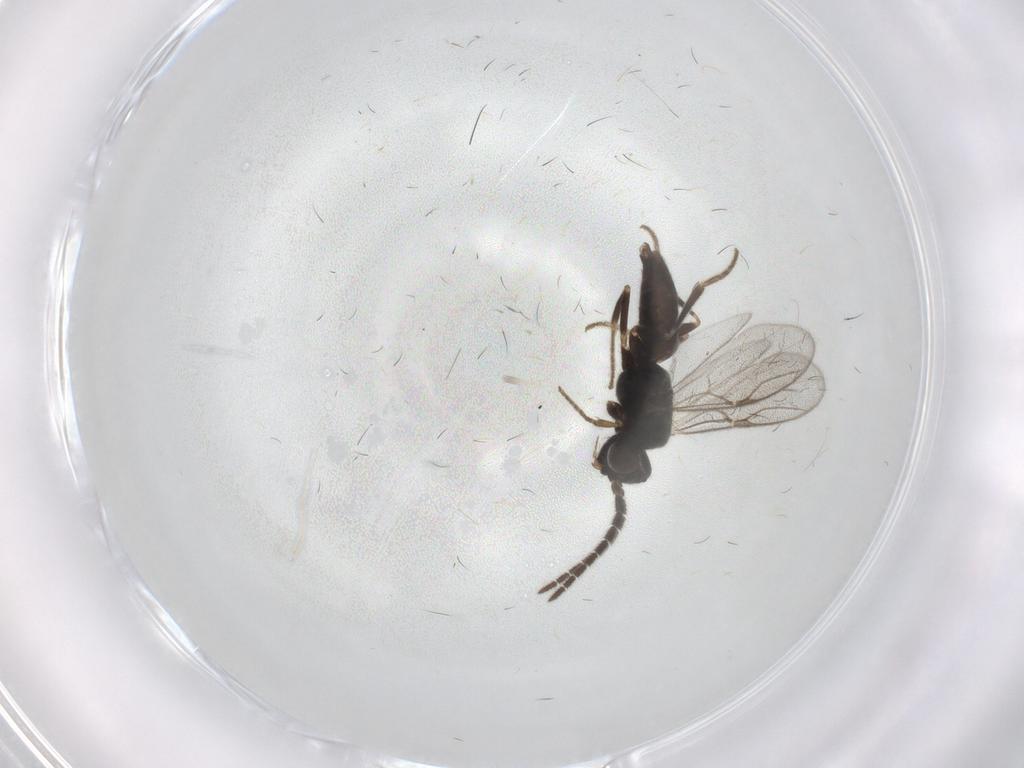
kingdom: Animalia
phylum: Arthropoda
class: Insecta
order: Hymenoptera
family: Dryinidae
